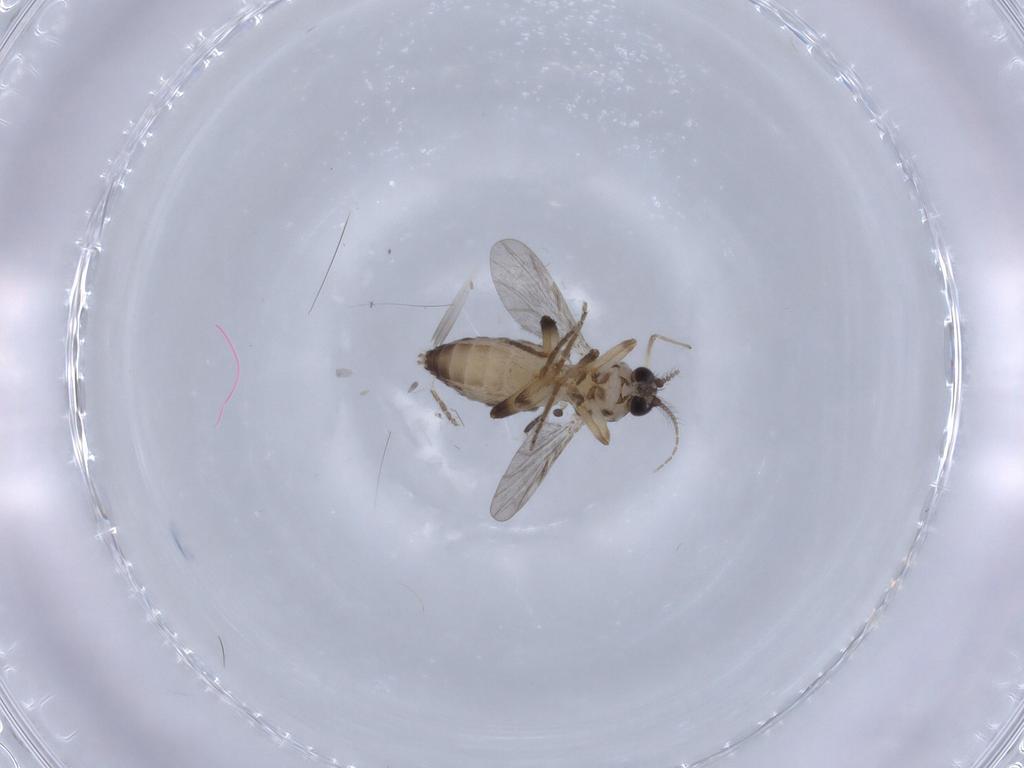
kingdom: Animalia
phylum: Arthropoda
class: Insecta
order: Diptera
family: Ceratopogonidae
